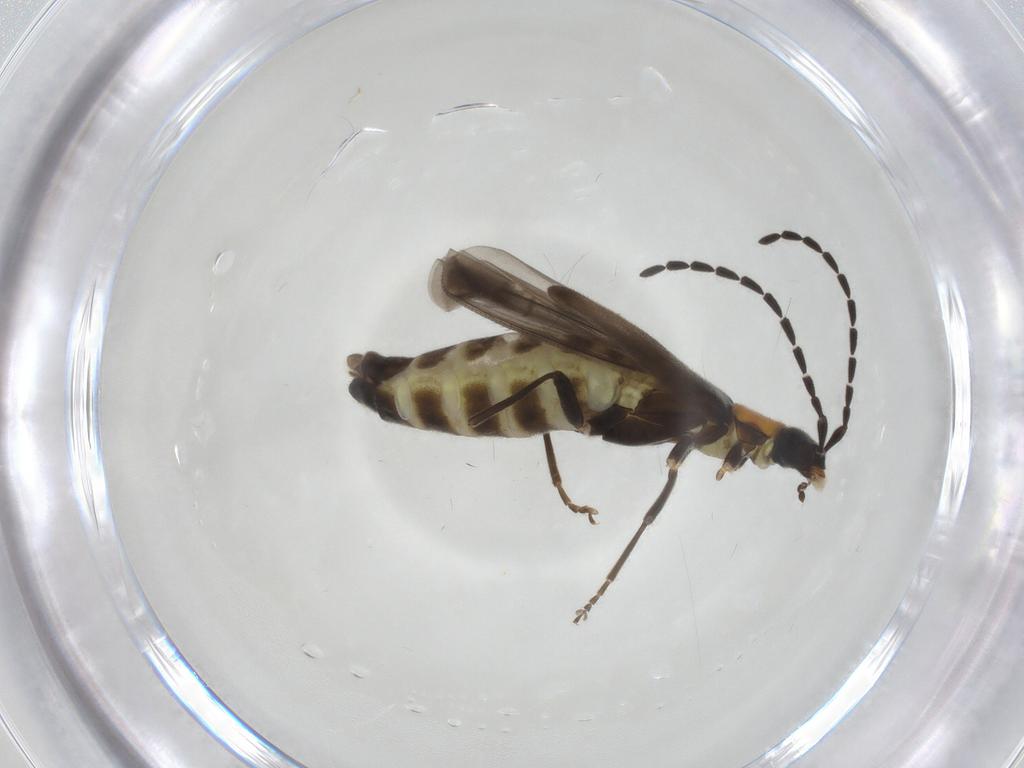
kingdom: Animalia
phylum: Arthropoda
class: Insecta
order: Coleoptera
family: Cantharidae
